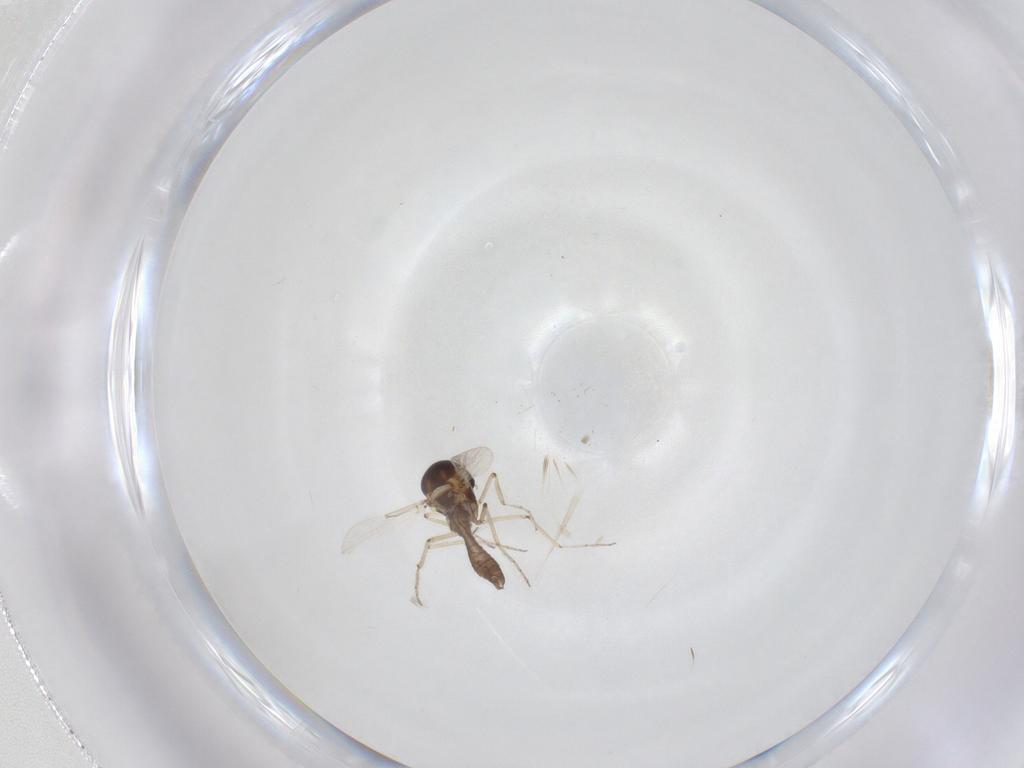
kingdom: Animalia
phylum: Arthropoda
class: Insecta
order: Diptera
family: Ceratopogonidae
